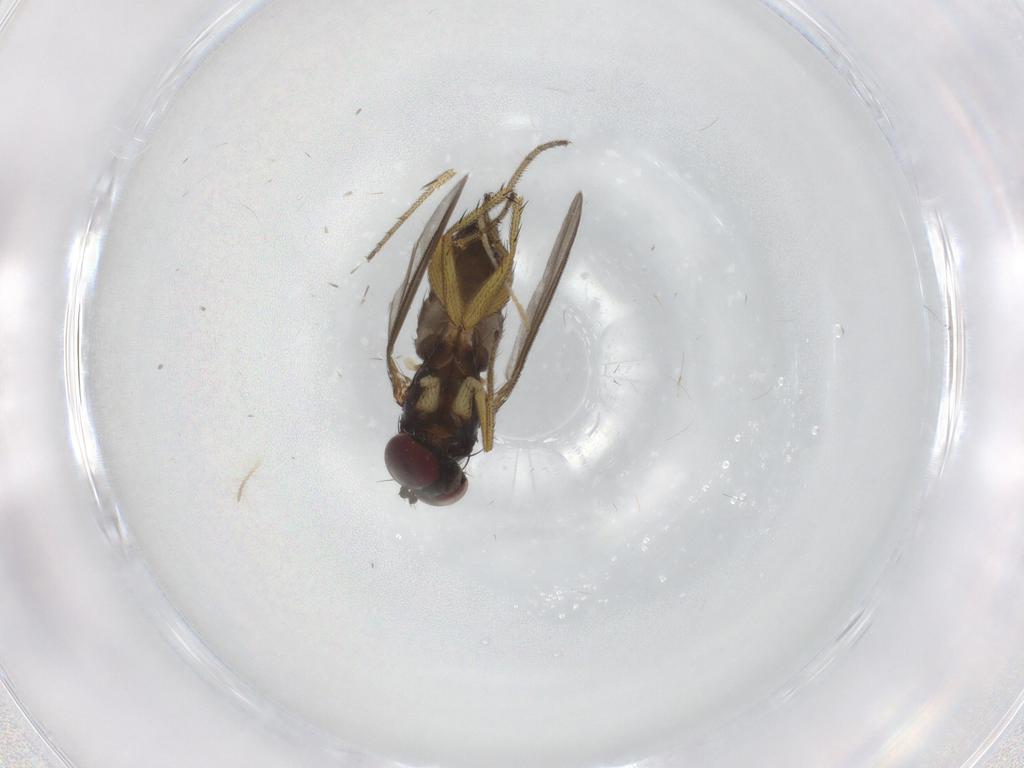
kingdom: Animalia
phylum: Arthropoda
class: Insecta
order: Diptera
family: Chironomidae
